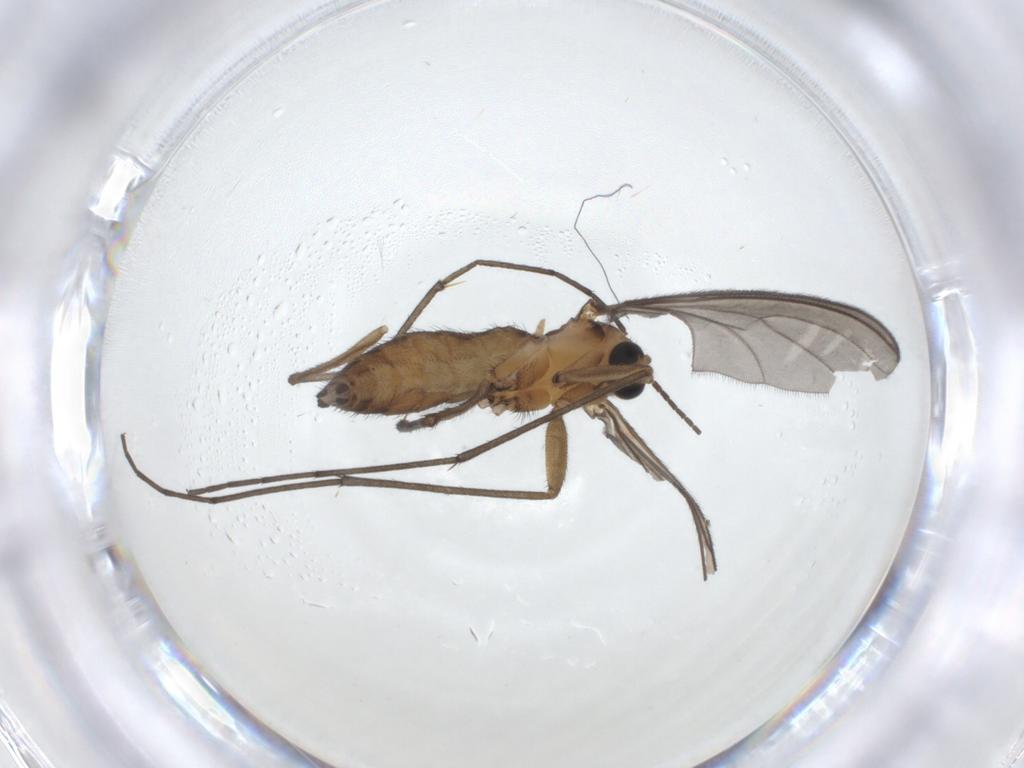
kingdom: Animalia
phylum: Arthropoda
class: Insecta
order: Diptera
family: Sciaridae
